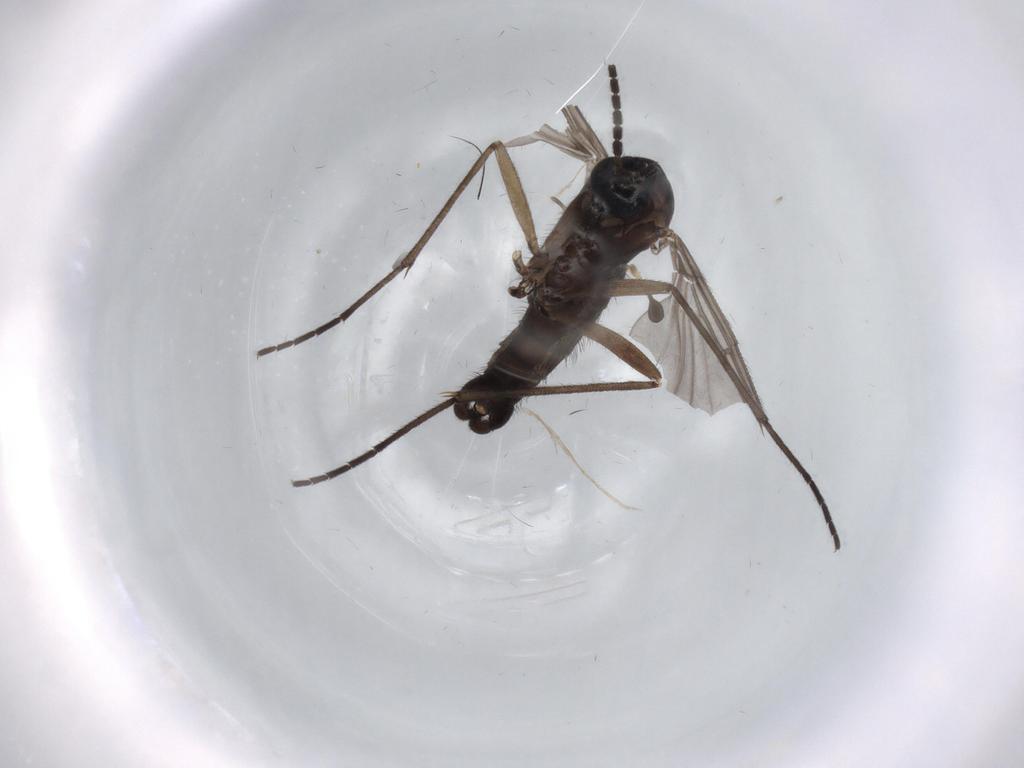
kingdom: Animalia
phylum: Arthropoda
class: Insecta
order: Diptera
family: Sciaridae
